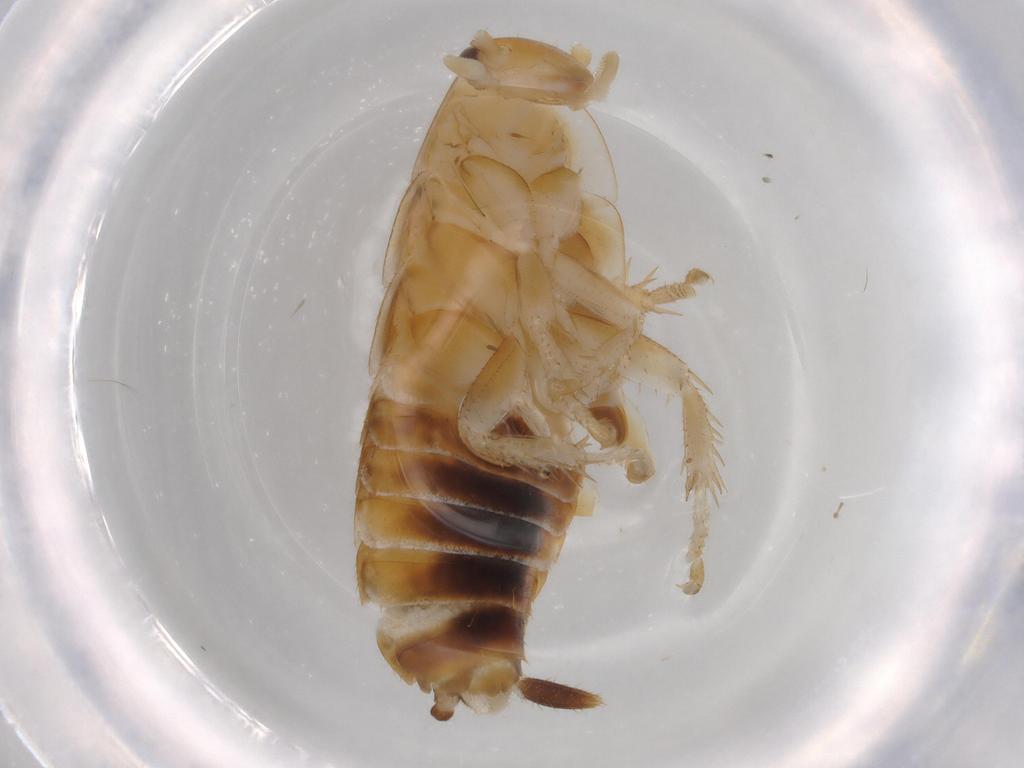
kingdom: Animalia
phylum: Arthropoda
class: Insecta
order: Blattodea
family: Ectobiidae
